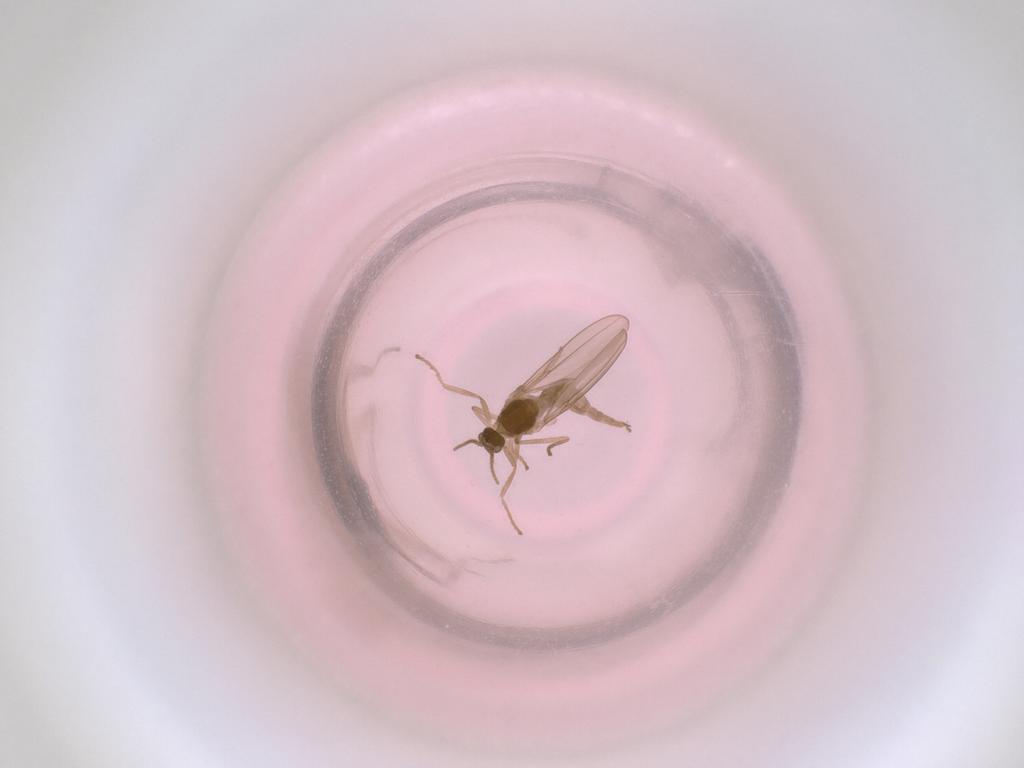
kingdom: Animalia
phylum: Arthropoda
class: Insecta
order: Diptera
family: Cecidomyiidae
